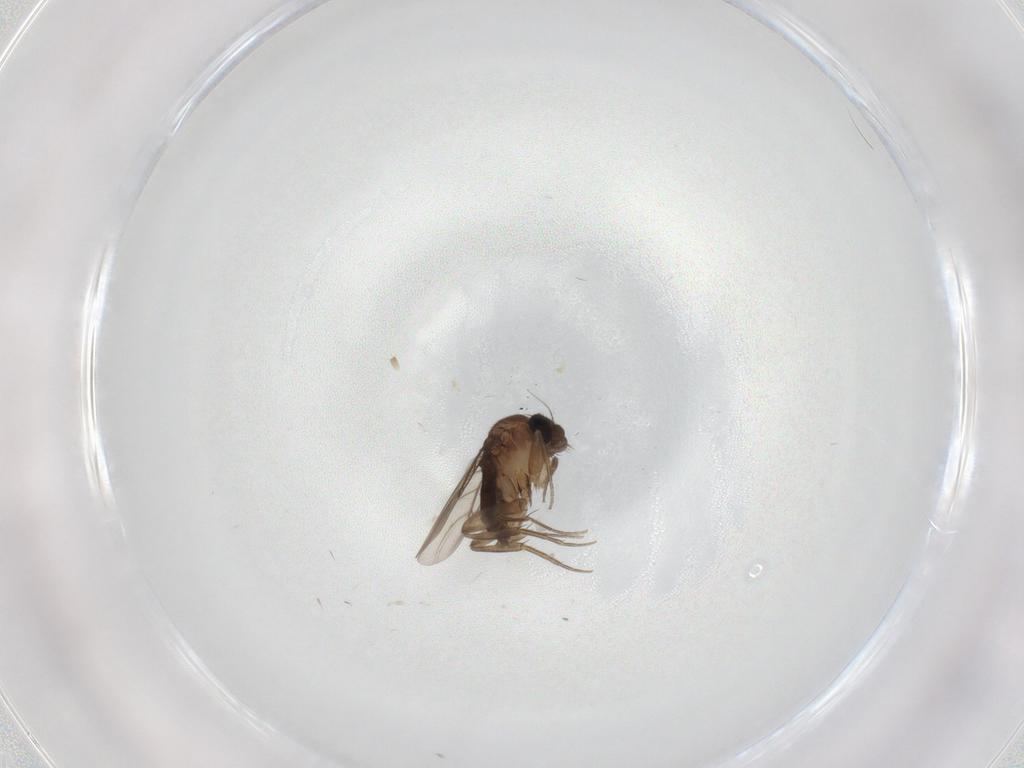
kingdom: Animalia
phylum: Arthropoda
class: Insecta
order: Diptera
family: Phoridae
